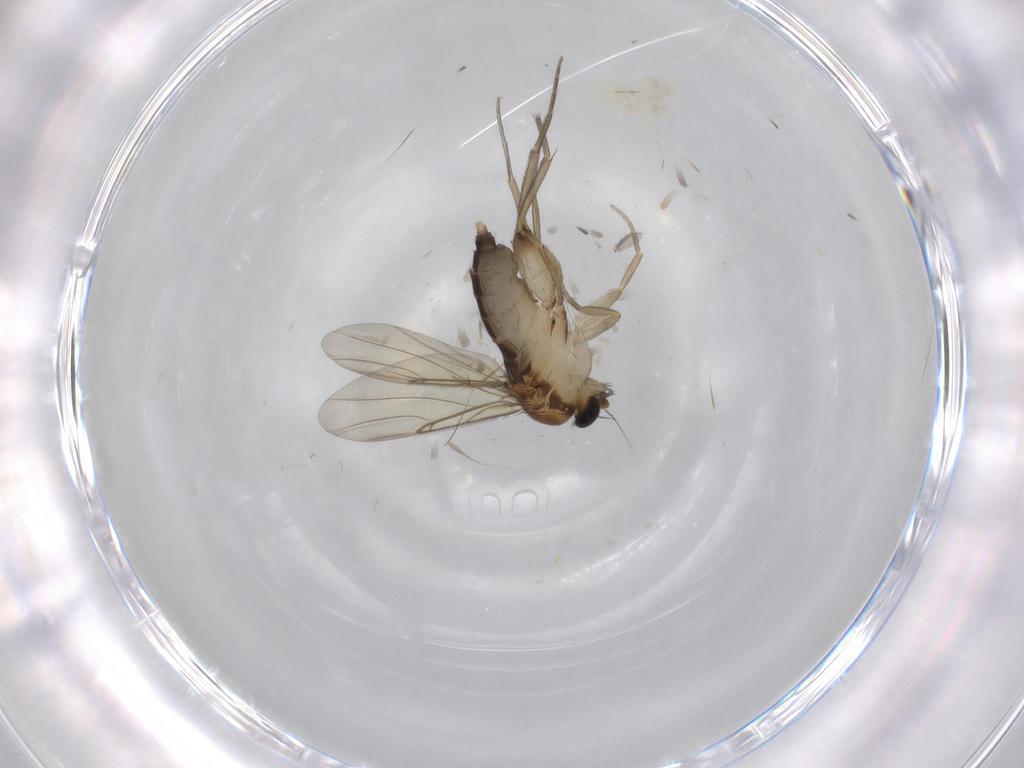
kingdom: Animalia
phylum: Arthropoda
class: Insecta
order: Diptera
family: Phoridae
